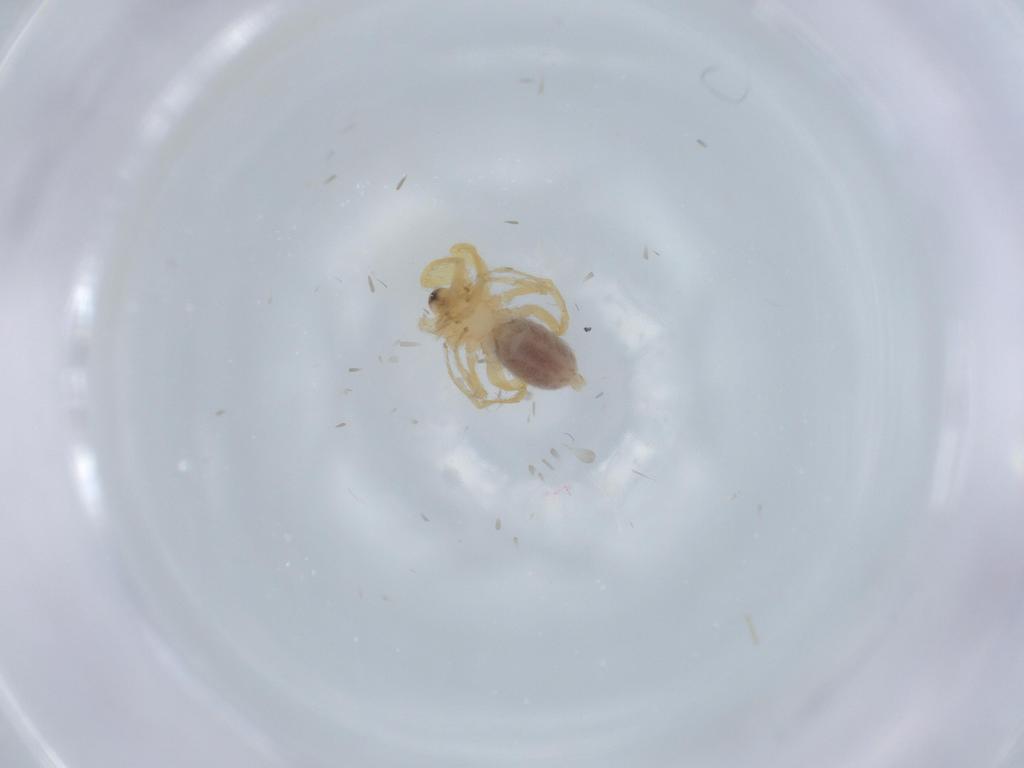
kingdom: Animalia
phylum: Arthropoda
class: Arachnida
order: Araneae
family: Oonopidae
